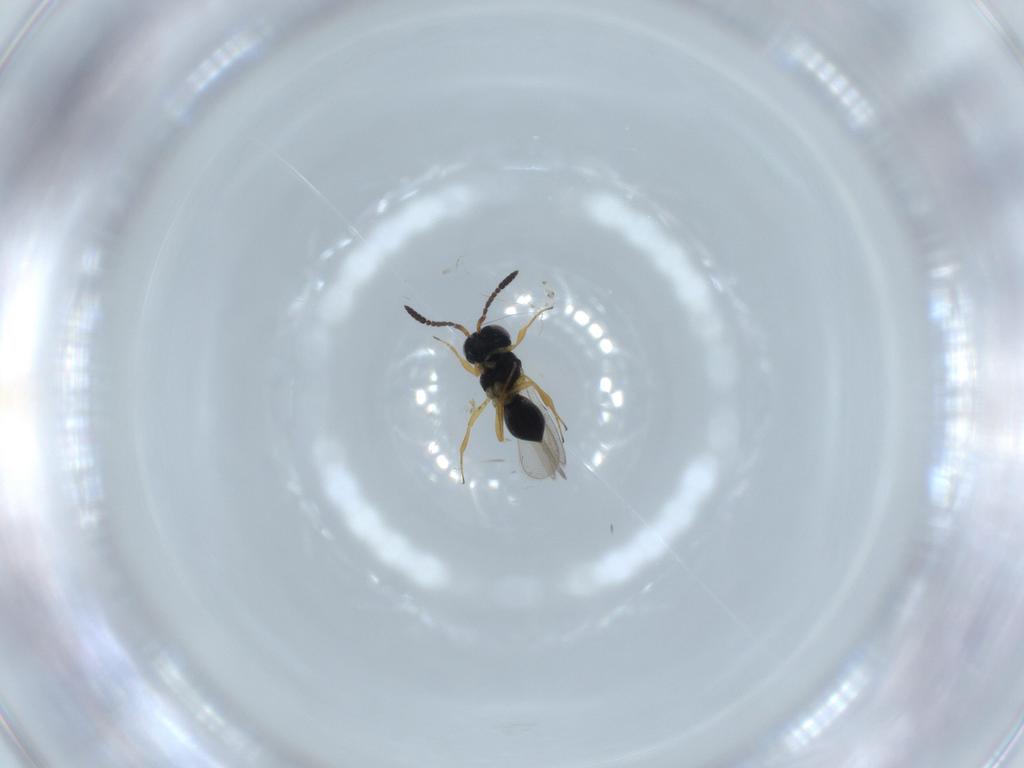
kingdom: Animalia
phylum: Arthropoda
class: Insecta
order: Hymenoptera
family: Scelionidae
